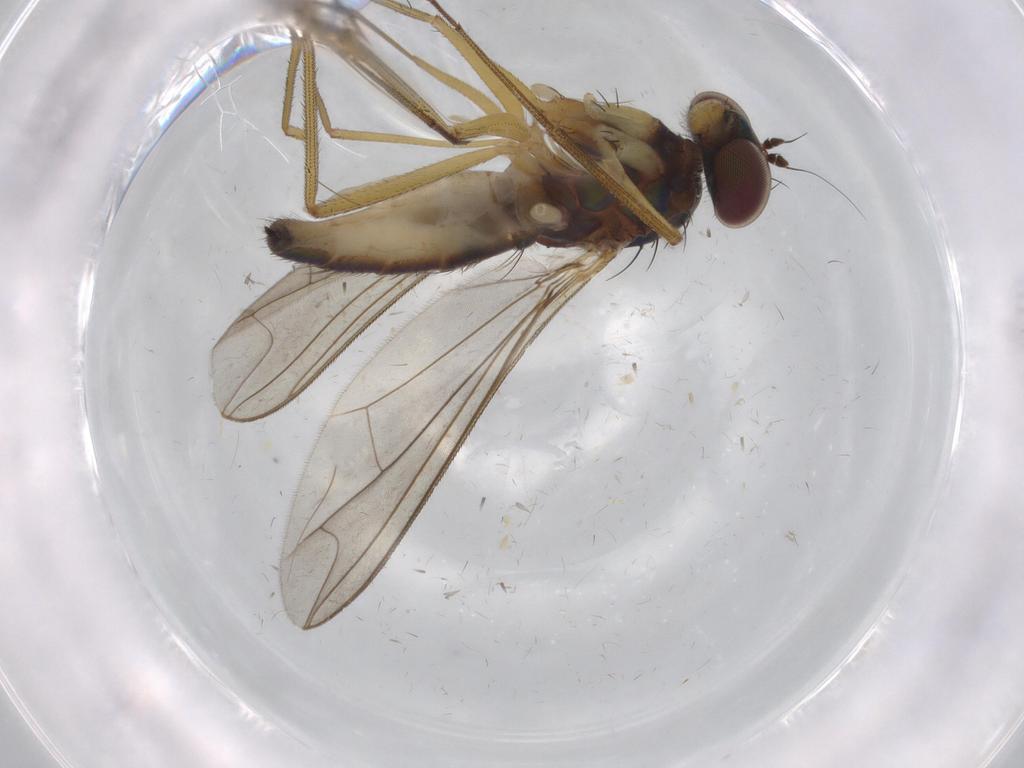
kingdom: Animalia
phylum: Arthropoda
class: Insecta
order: Diptera
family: Dolichopodidae
